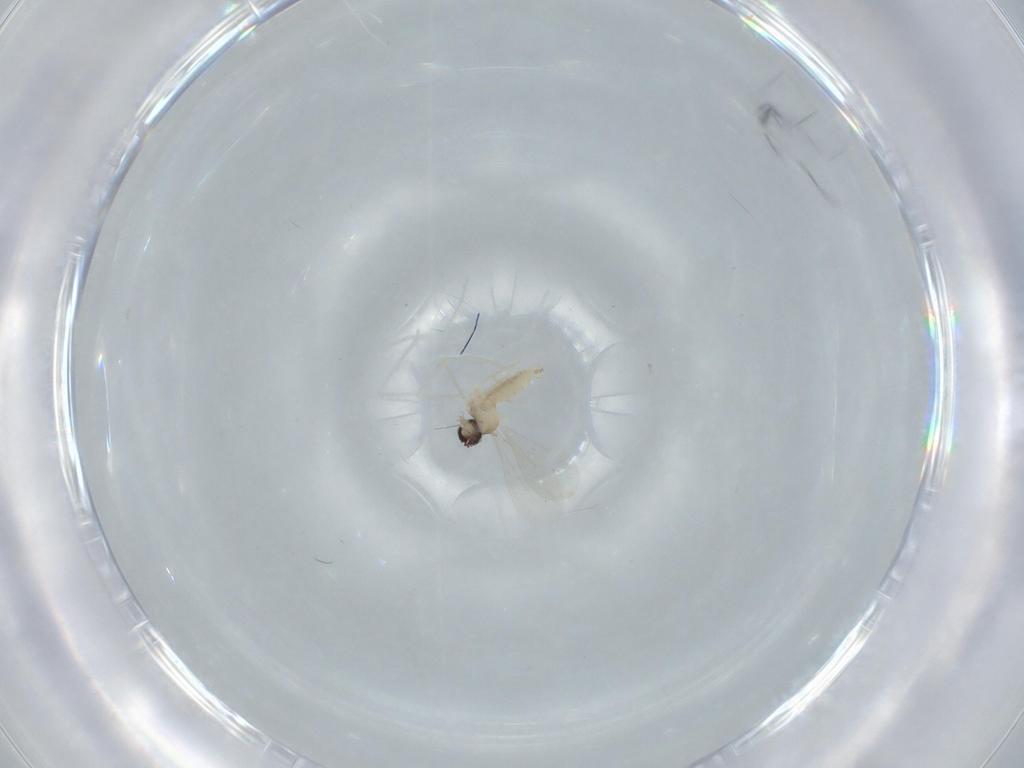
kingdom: Animalia
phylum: Arthropoda
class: Insecta
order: Diptera
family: Cecidomyiidae
